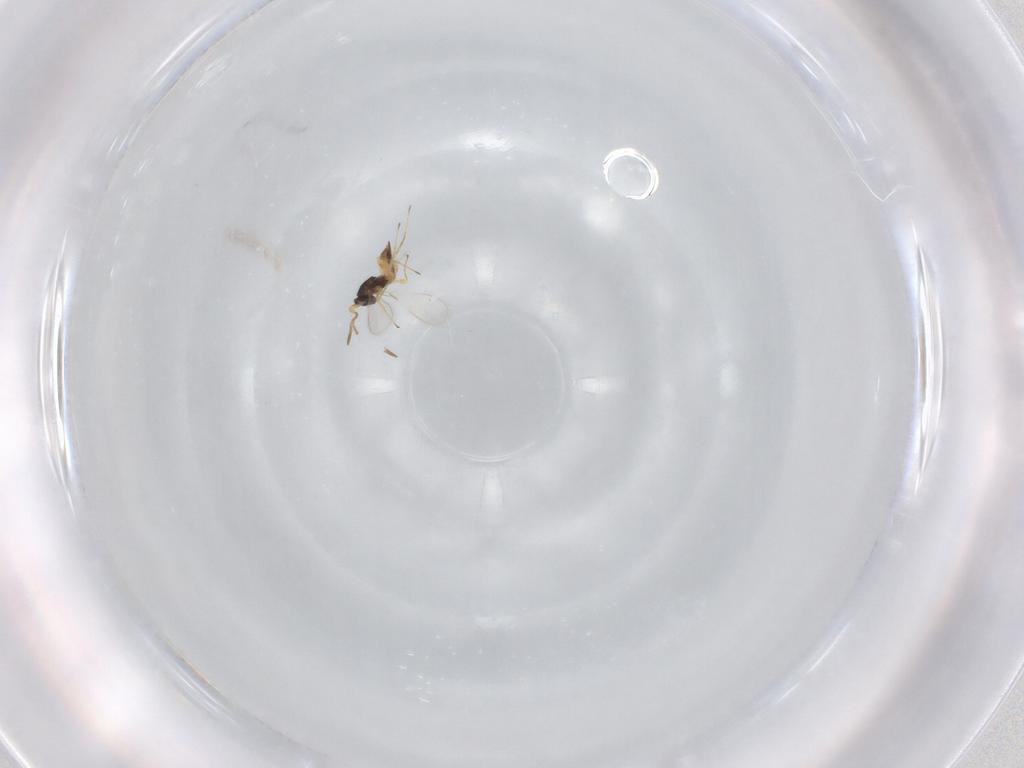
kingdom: Animalia
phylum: Arthropoda
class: Insecta
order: Hymenoptera
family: Mymaridae
